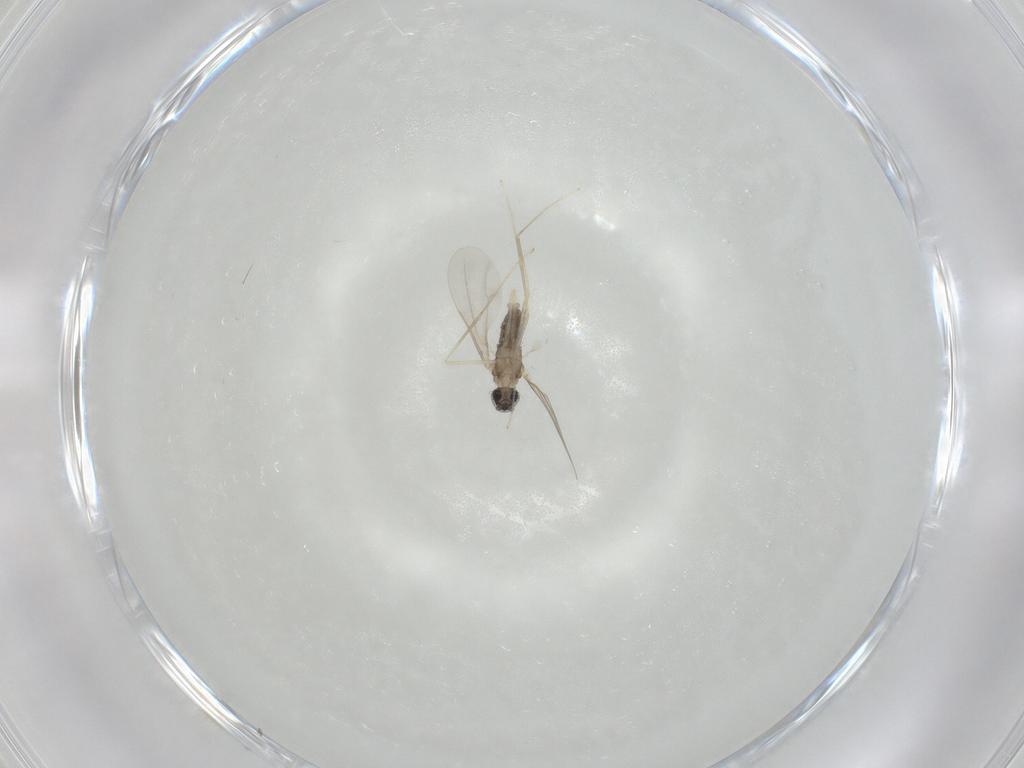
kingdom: Animalia
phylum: Arthropoda
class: Insecta
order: Diptera
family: Cecidomyiidae
